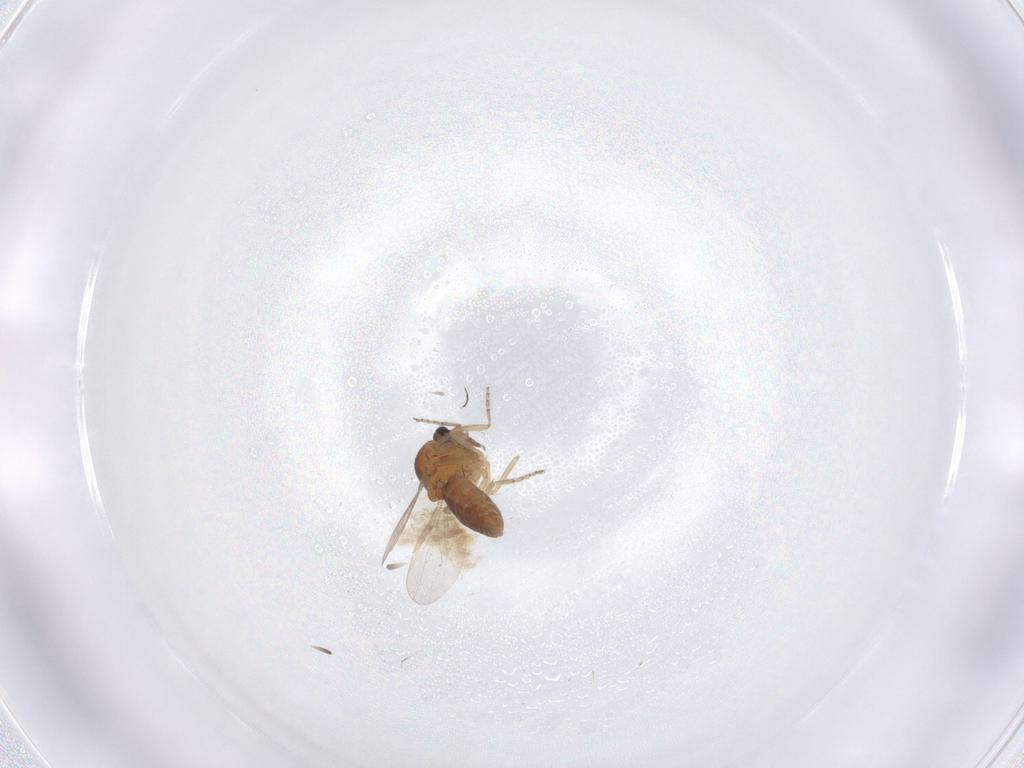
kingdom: Animalia
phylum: Arthropoda
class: Insecta
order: Diptera
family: Ceratopogonidae
